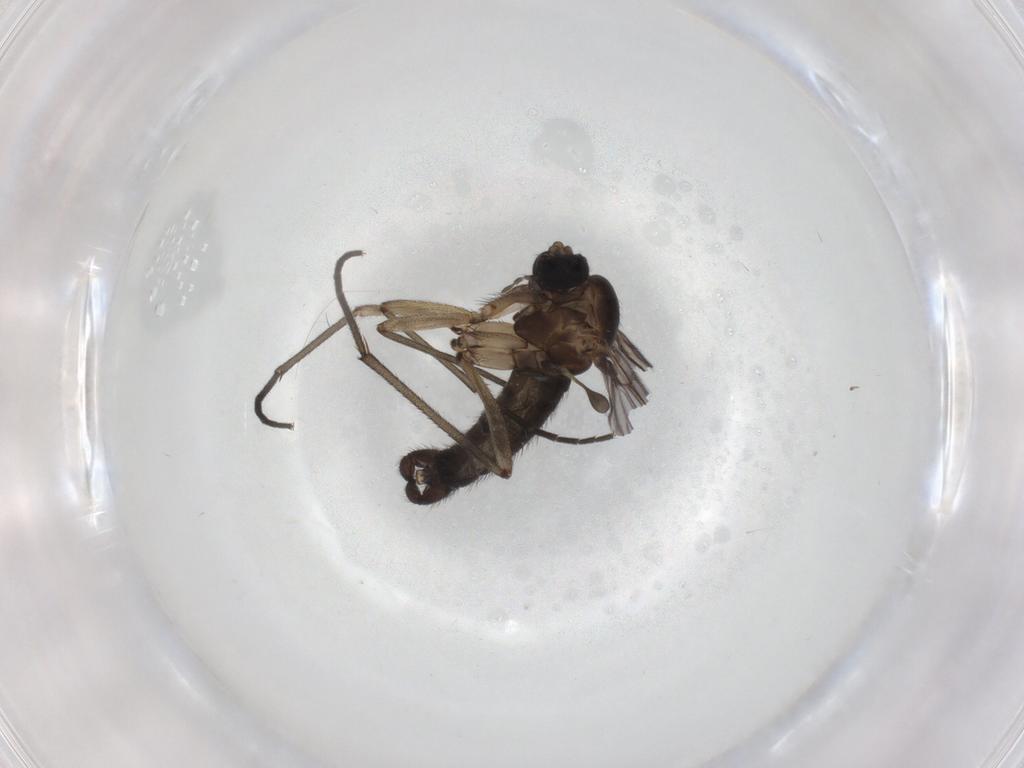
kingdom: Animalia
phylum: Arthropoda
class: Insecta
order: Diptera
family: Sciaridae
